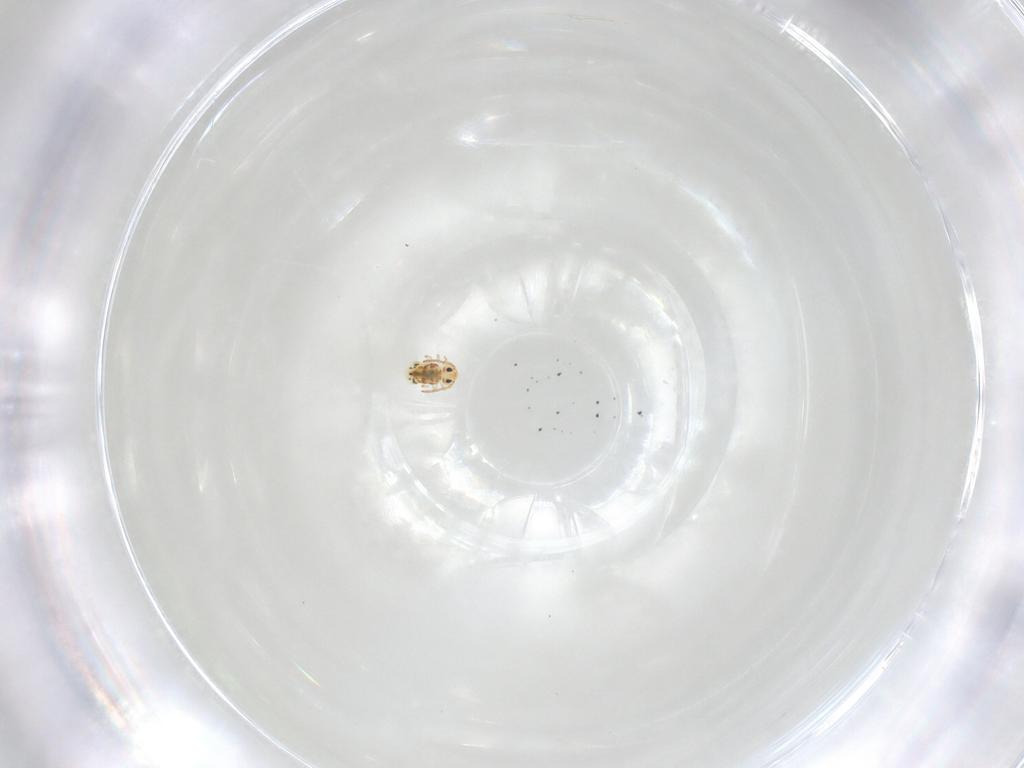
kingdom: Animalia
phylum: Arthropoda
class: Collembola
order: Symphypleona
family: Bourletiellidae
